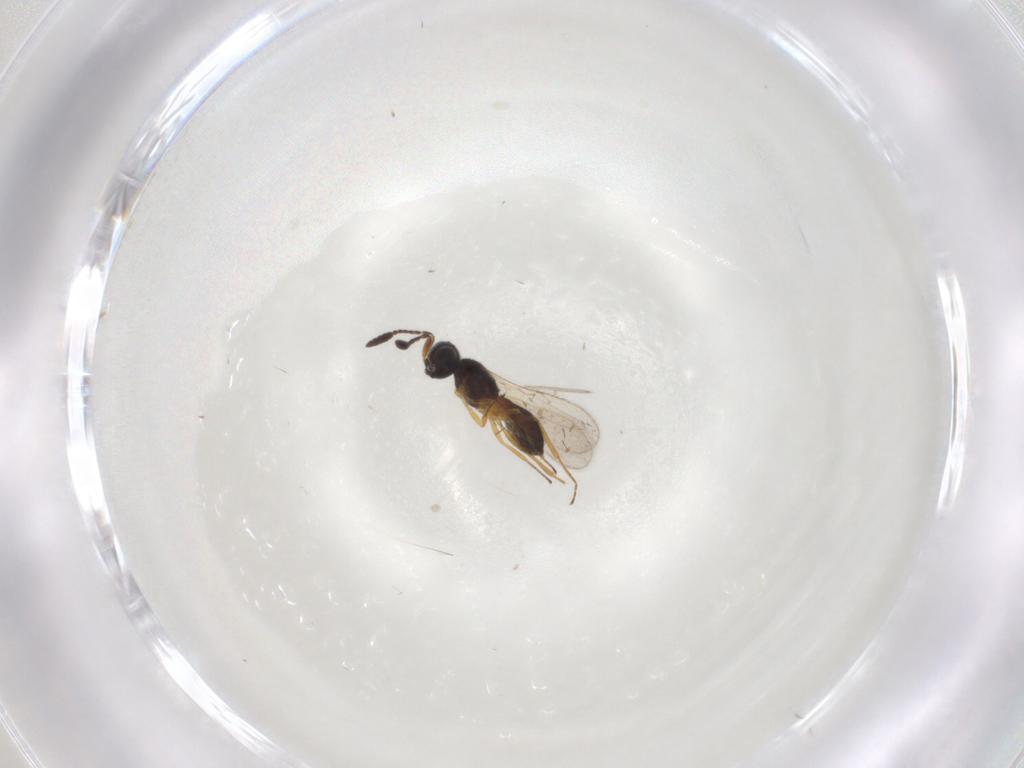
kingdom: Animalia
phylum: Arthropoda
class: Insecta
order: Hymenoptera
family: Scelionidae
